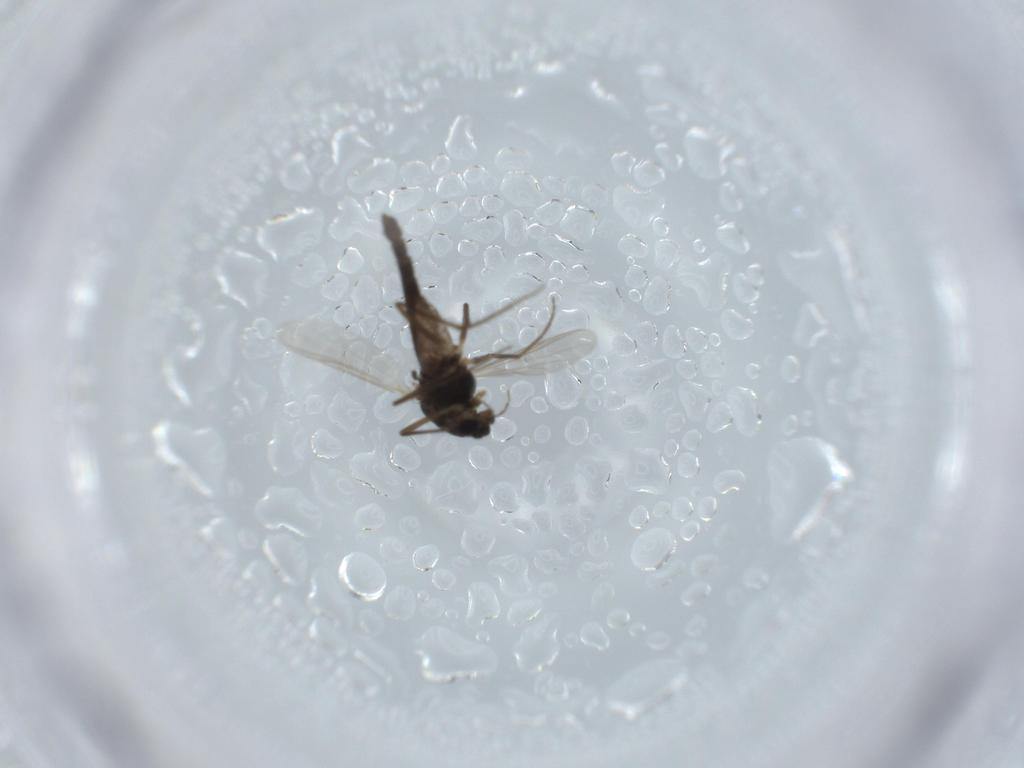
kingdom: Animalia
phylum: Arthropoda
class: Insecta
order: Diptera
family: Chironomidae
